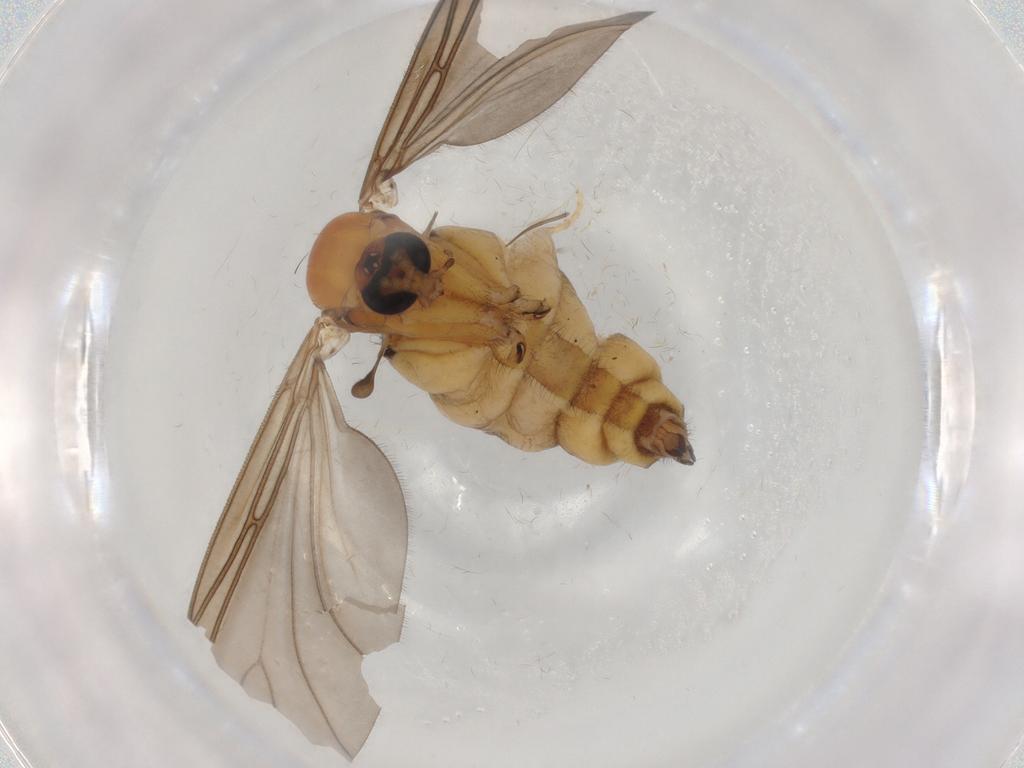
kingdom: Animalia
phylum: Arthropoda
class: Insecta
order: Diptera
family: Sciaridae
